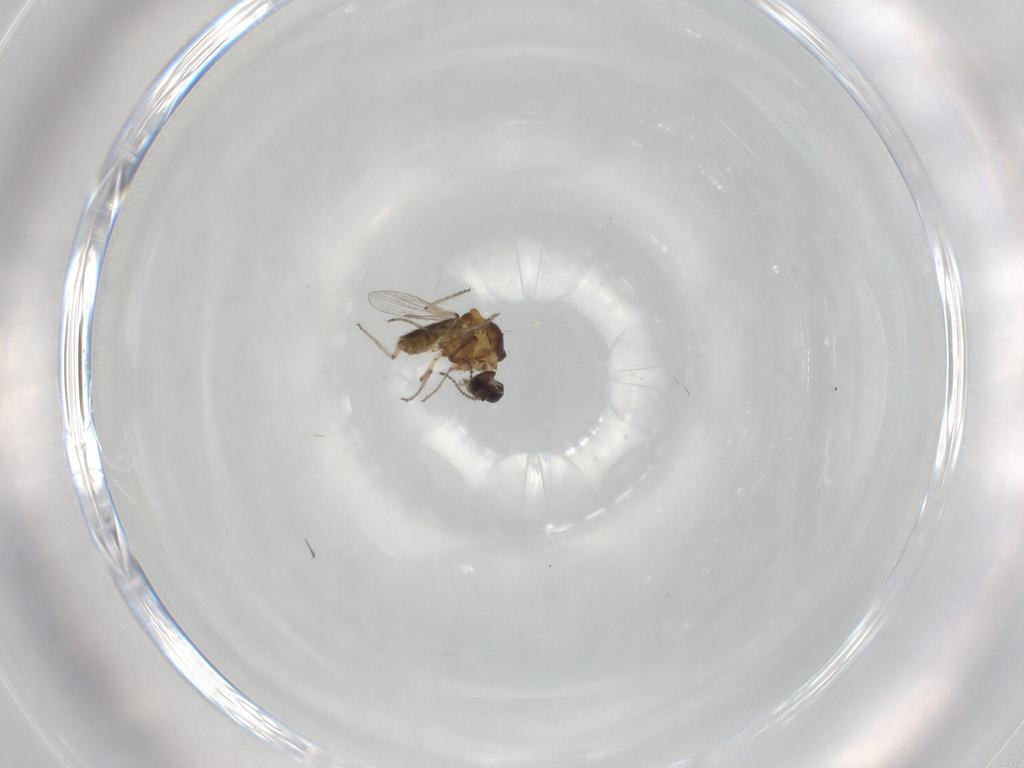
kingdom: Animalia
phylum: Arthropoda
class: Insecta
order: Diptera
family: Ceratopogonidae
